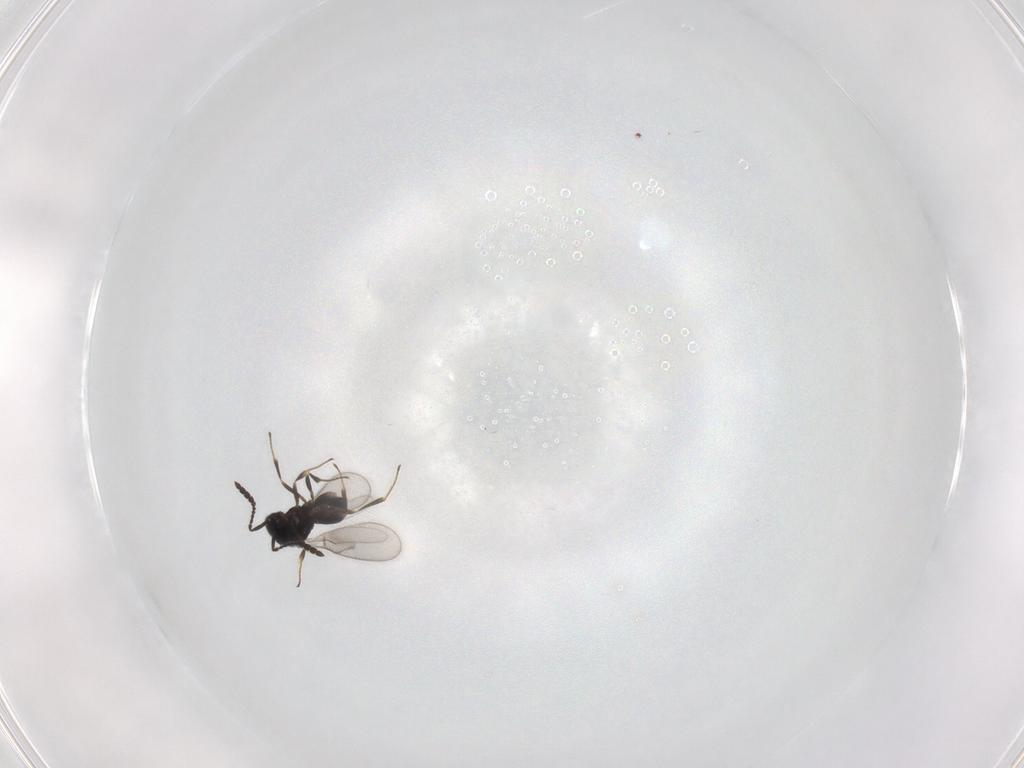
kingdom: Animalia
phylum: Arthropoda
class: Insecta
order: Hymenoptera
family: Scelionidae
